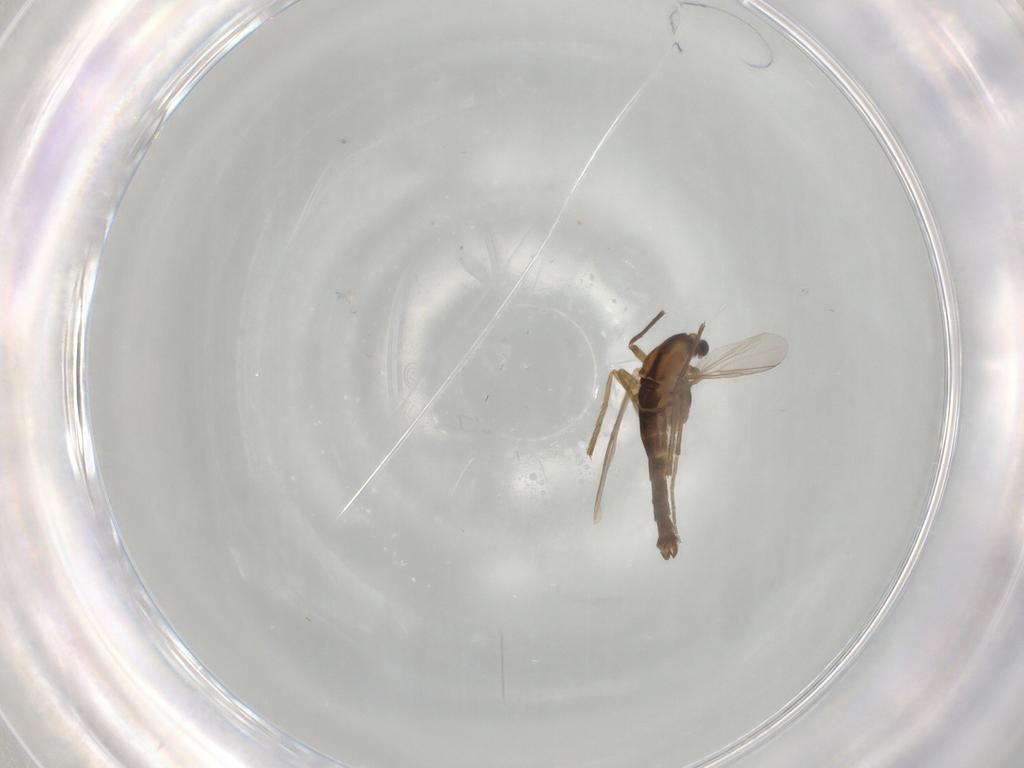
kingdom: Animalia
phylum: Arthropoda
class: Insecta
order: Diptera
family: Chironomidae
